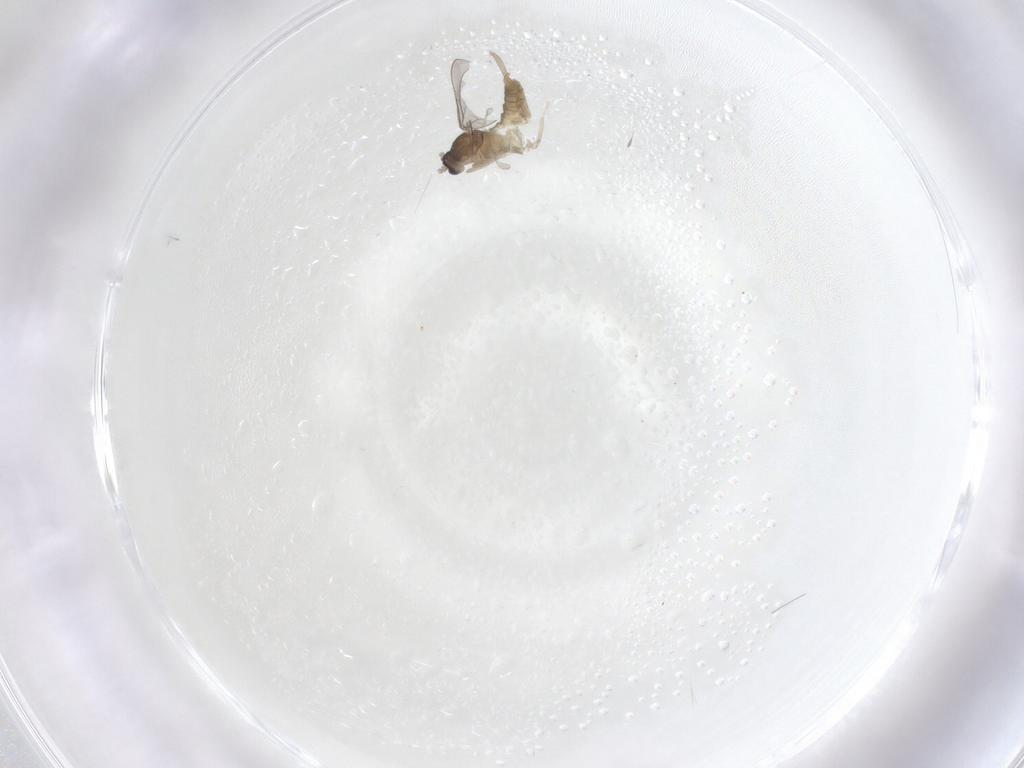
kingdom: Animalia
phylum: Arthropoda
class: Insecta
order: Diptera
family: Cecidomyiidae
